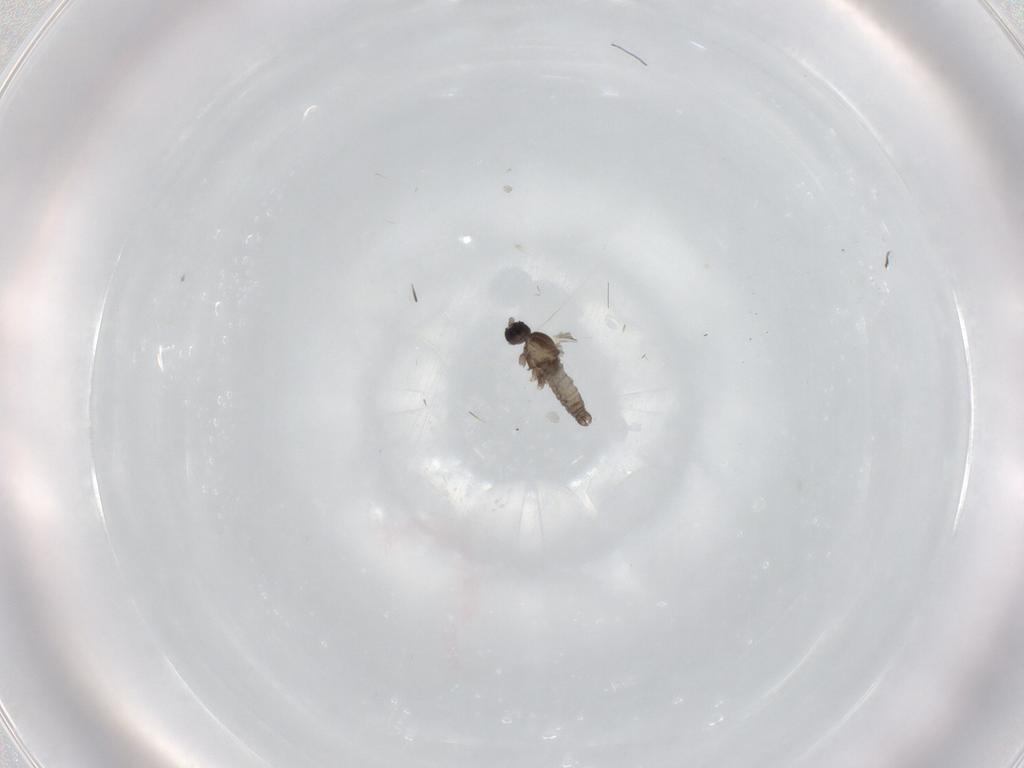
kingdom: Animalia
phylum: Arthropoda
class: Insecta
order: Diptera
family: Cecidomyiidae
